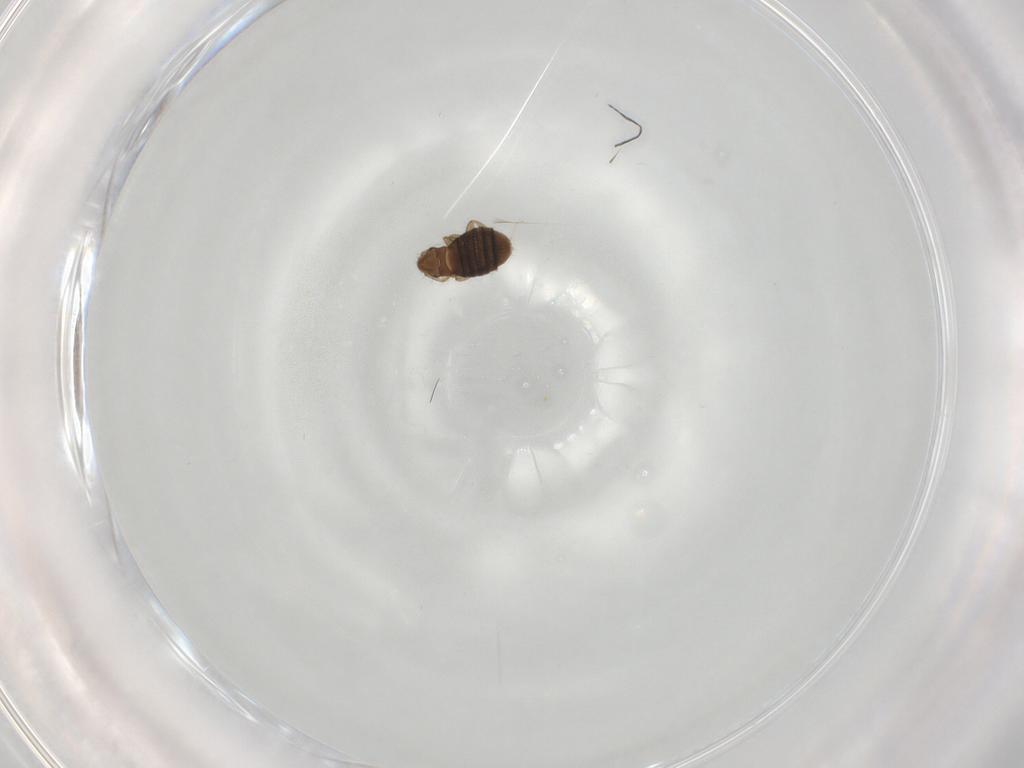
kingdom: Animalia
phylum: Arthropoda
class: Insecta
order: Diptera
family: Cecidomyiidae
